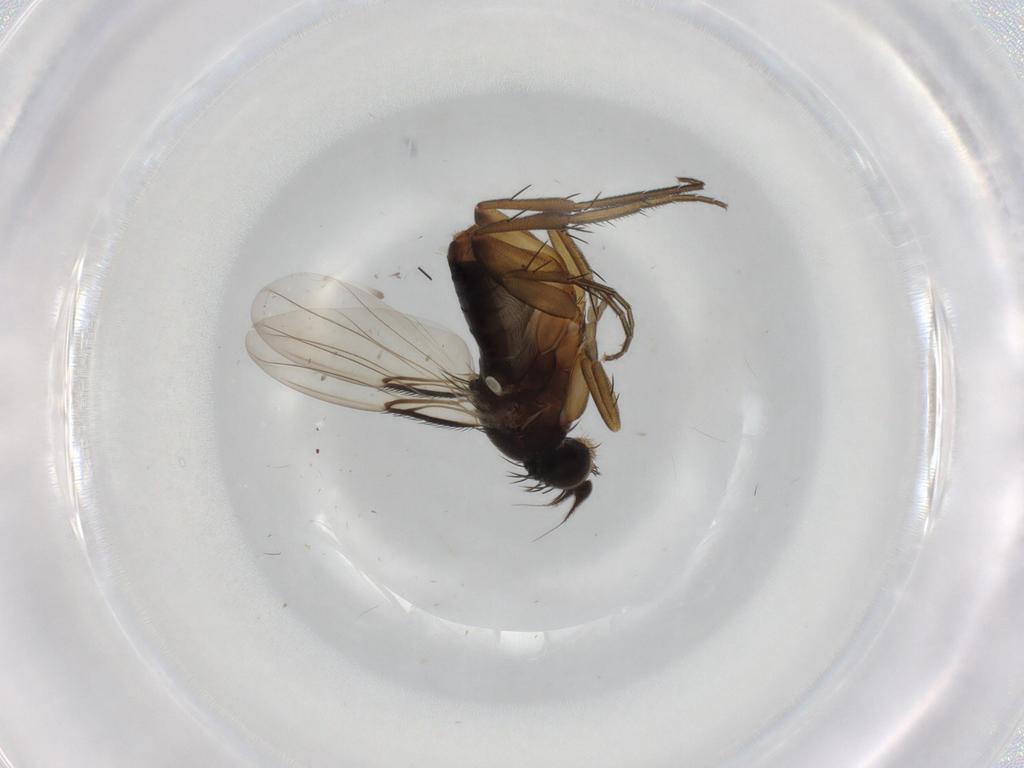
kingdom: Animalia
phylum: Arthropoda
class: Insecta
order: Diptera
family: Phoridae
